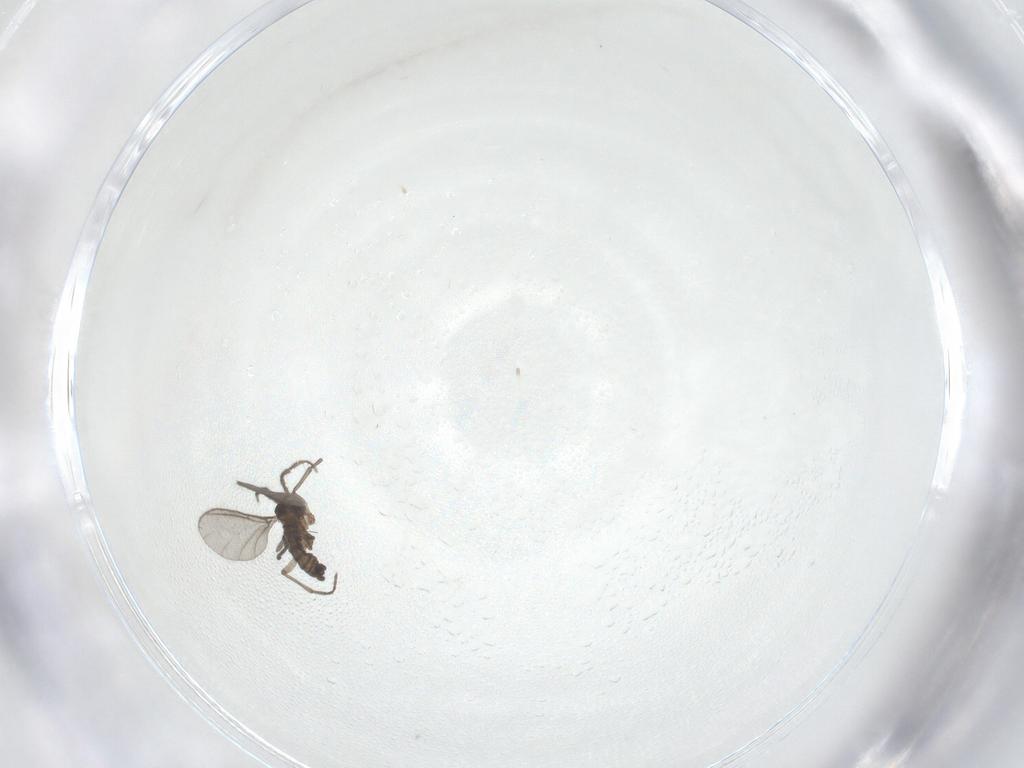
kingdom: Animalia
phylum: Arthropoda
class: Insecta
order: Diptera
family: Sciaridae
